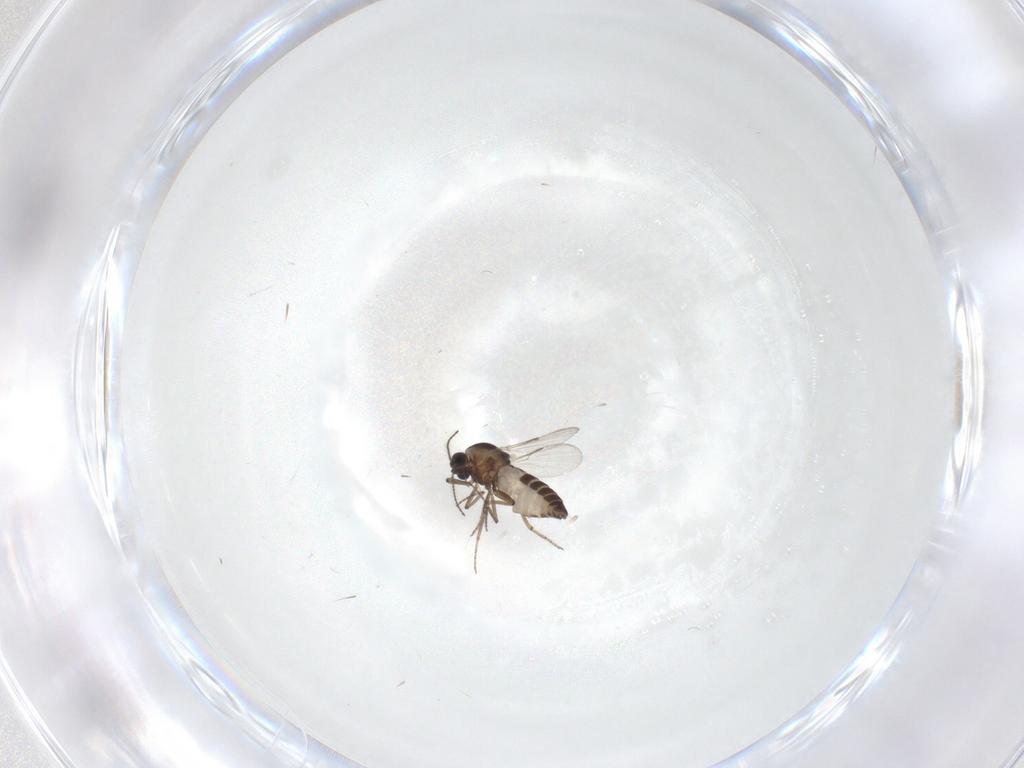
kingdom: Animalia
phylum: Arthropoda
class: Insecta
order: Diptera
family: Ceratopogonidae
